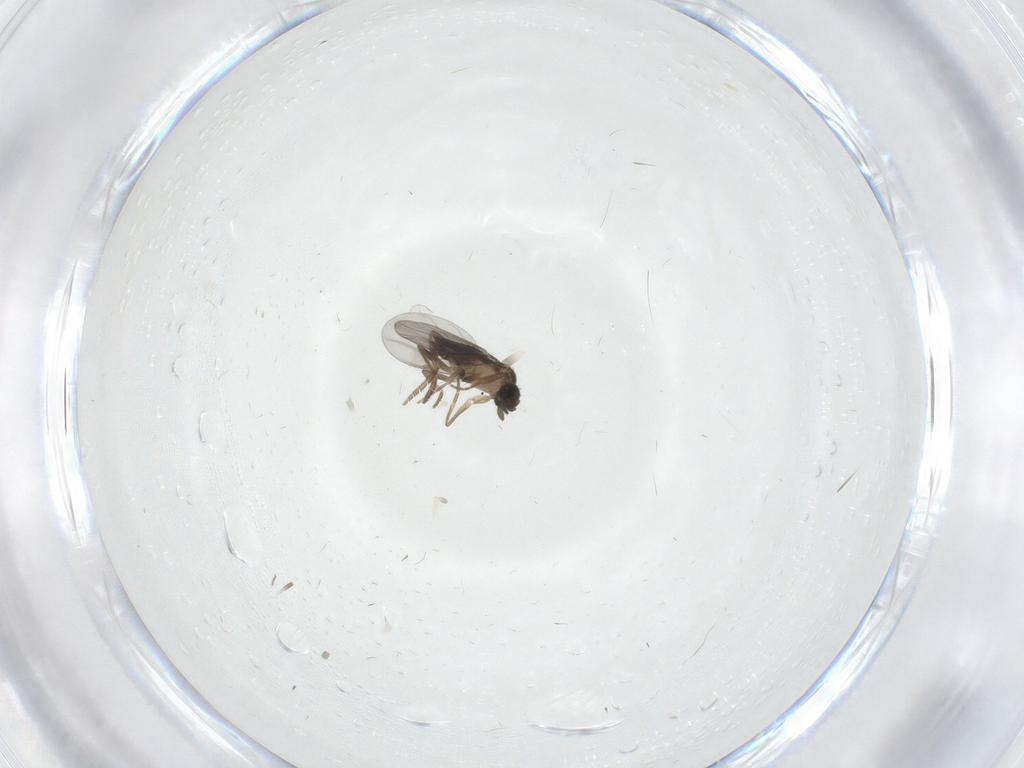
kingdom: Animalia
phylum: Arthropoda
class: Insecta
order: Diptera
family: Cecidomyiidae
